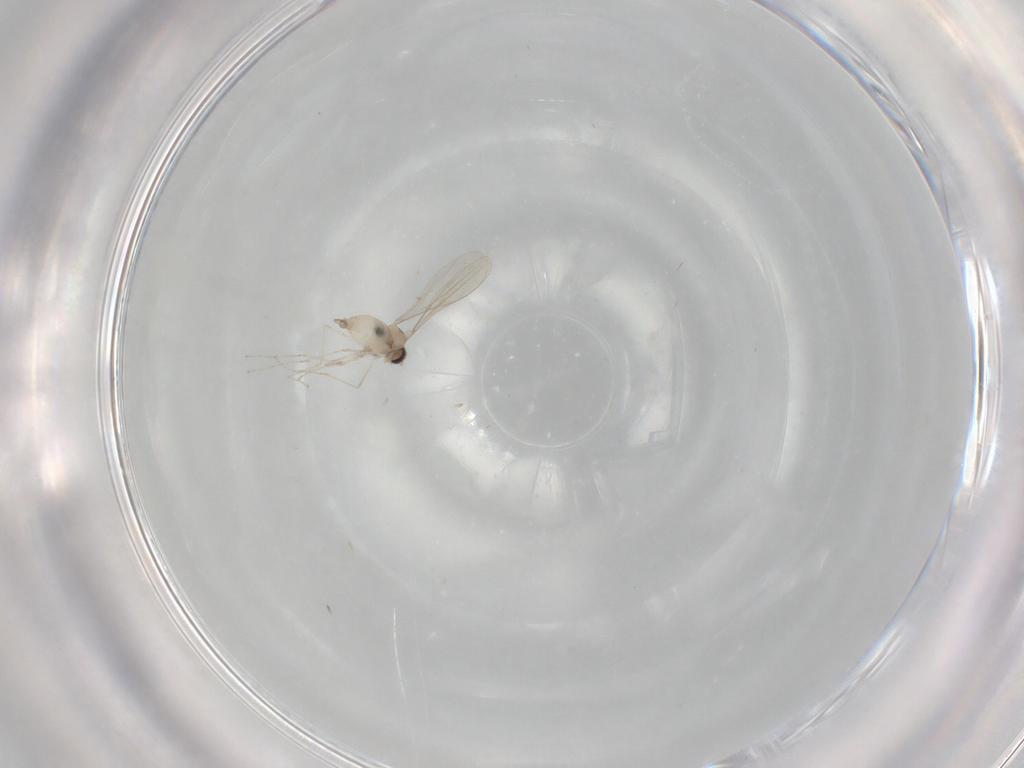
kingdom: Animalia
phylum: Arthropoda
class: Insecta
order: Diptera
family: Cecidomyiidae
